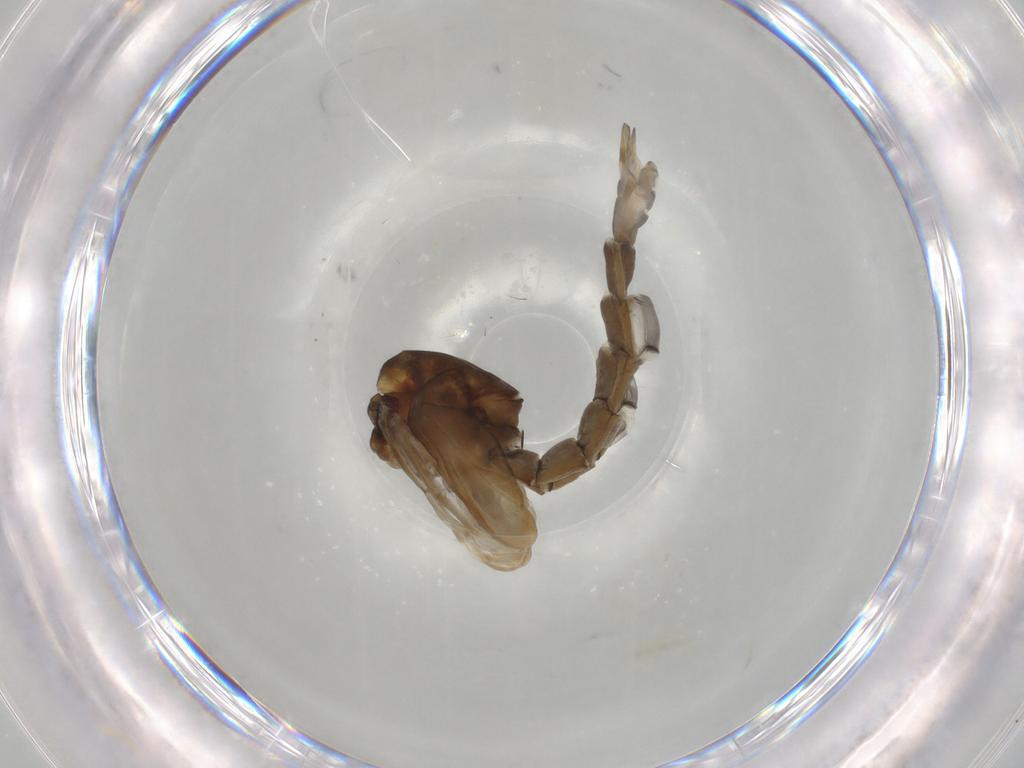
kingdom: Animalia
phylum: Arthropoda
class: Insecta
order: Diptera
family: Chironomidae
